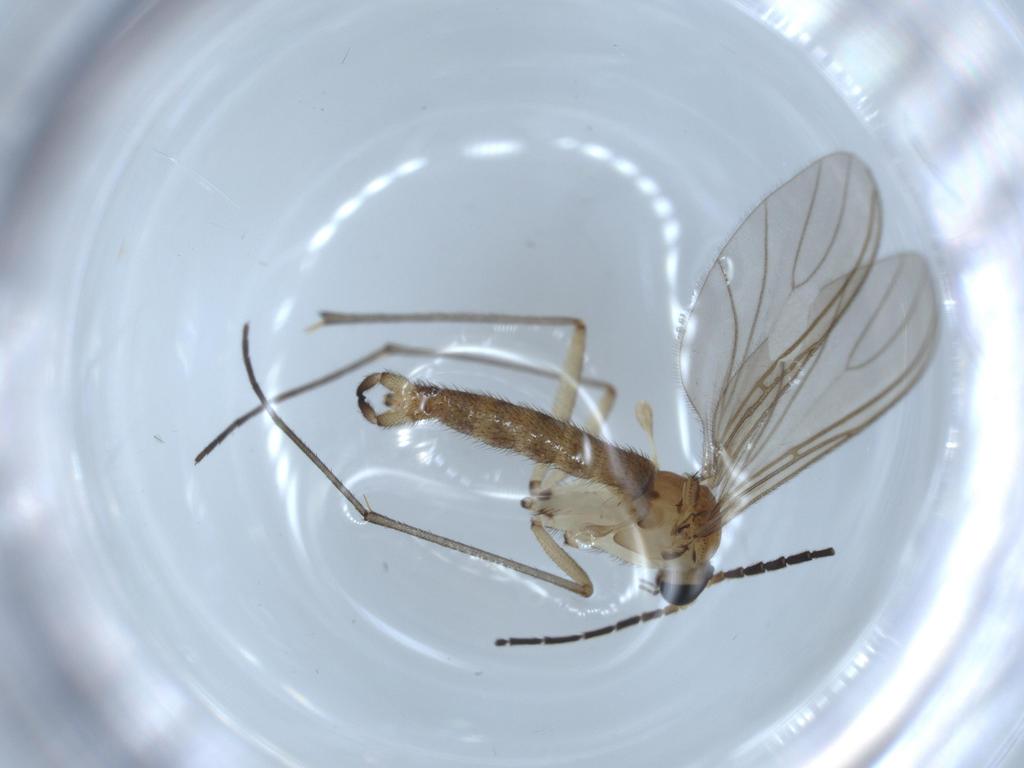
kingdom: Animalia
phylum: Arthropoda
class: Insecta
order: Diptera
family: Sciaridae
